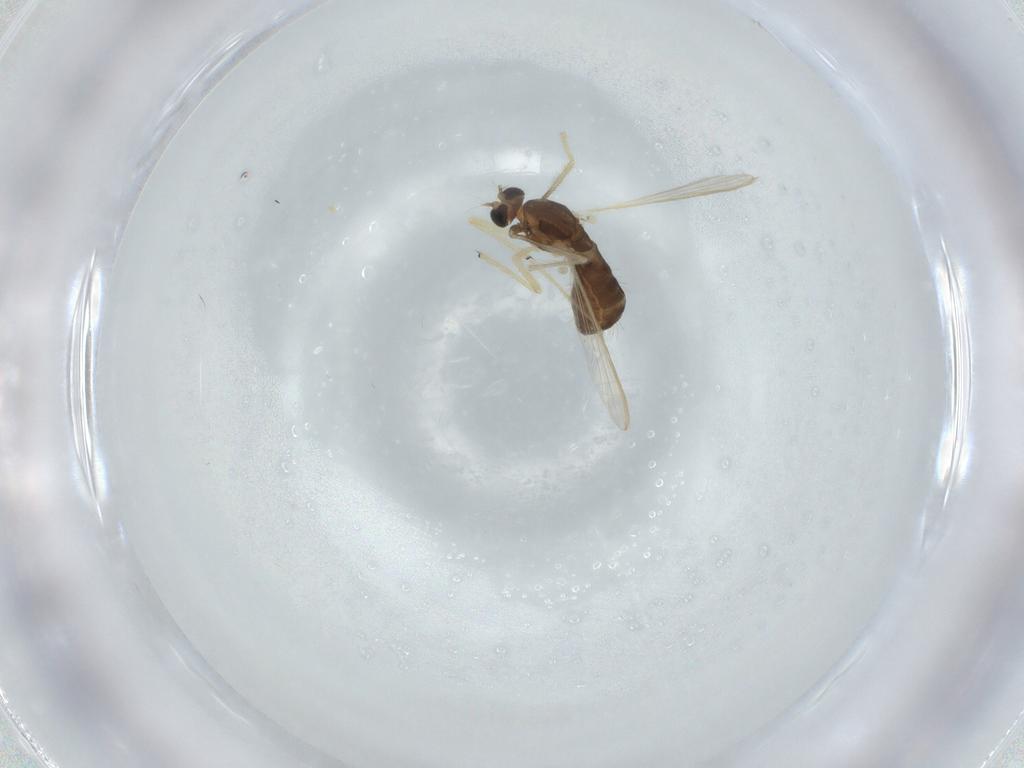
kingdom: Animalia
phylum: Arthropoda
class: Insecta
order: Diptera
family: Chironomidae
